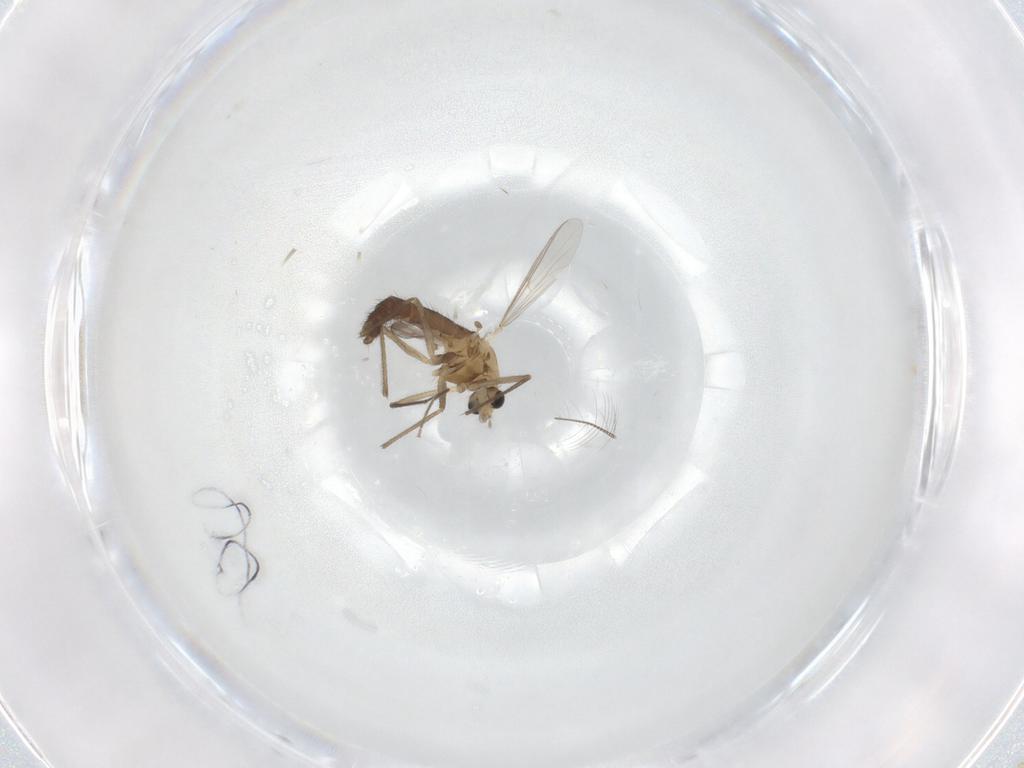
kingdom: Animalia
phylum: Arthropoda
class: Insecta
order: Diptera
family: Chironomidae
